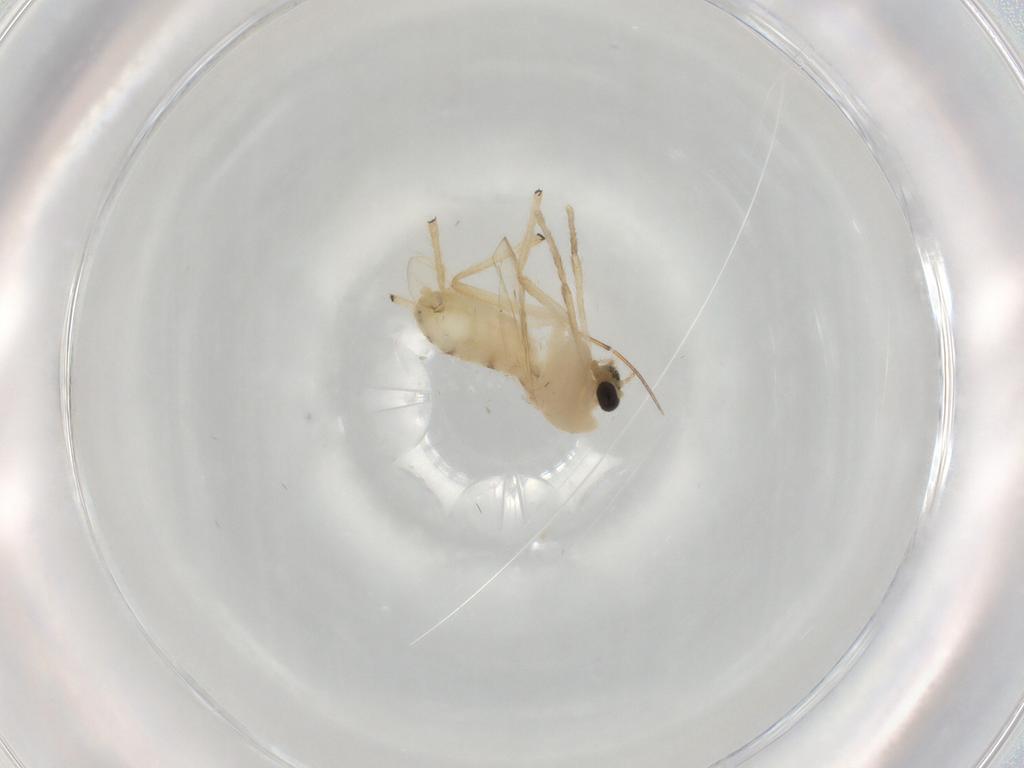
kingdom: Animalia
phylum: Arthropoda
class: Insecta
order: Diptera
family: Chironomidae
